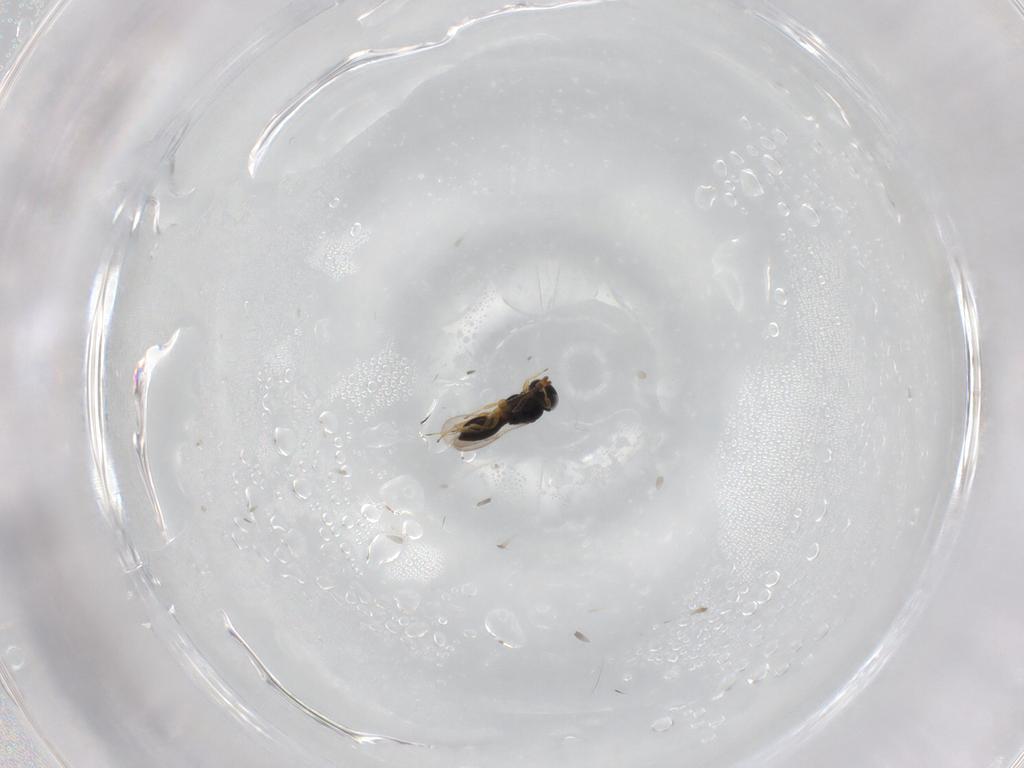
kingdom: Animalia
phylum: Arthropoda
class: Insecta
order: Hymenoptera
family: Scelionidae
